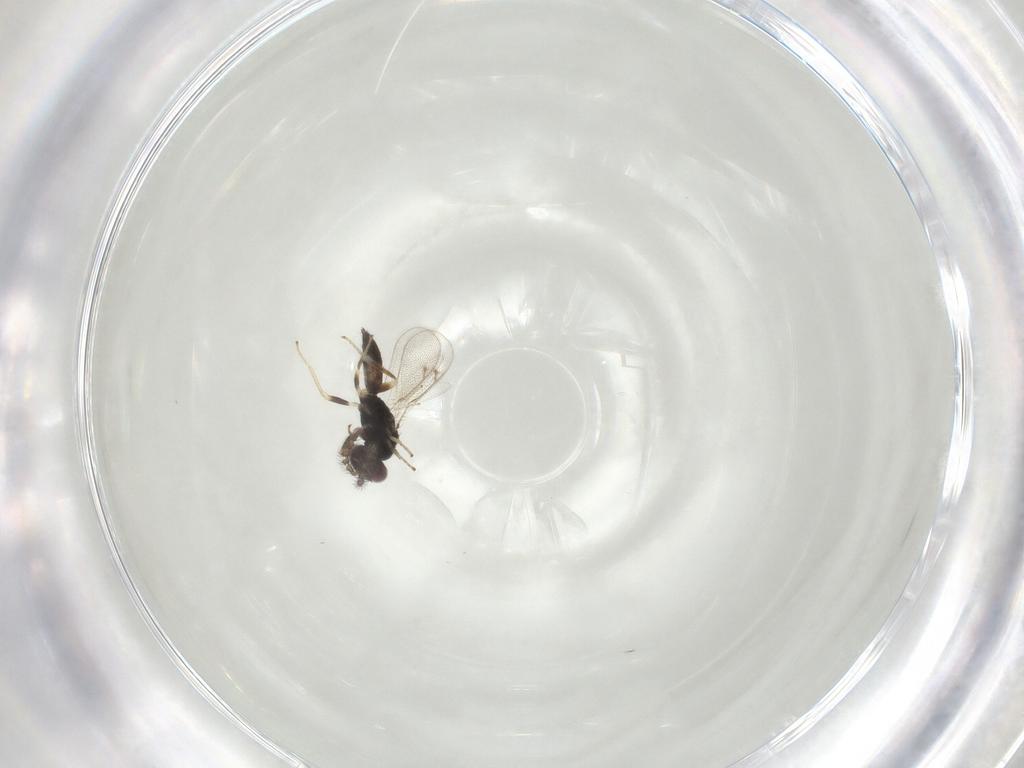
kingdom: Animalia
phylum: Arthropoda
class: Insecta
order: Hymenoptera
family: Eulophidae
